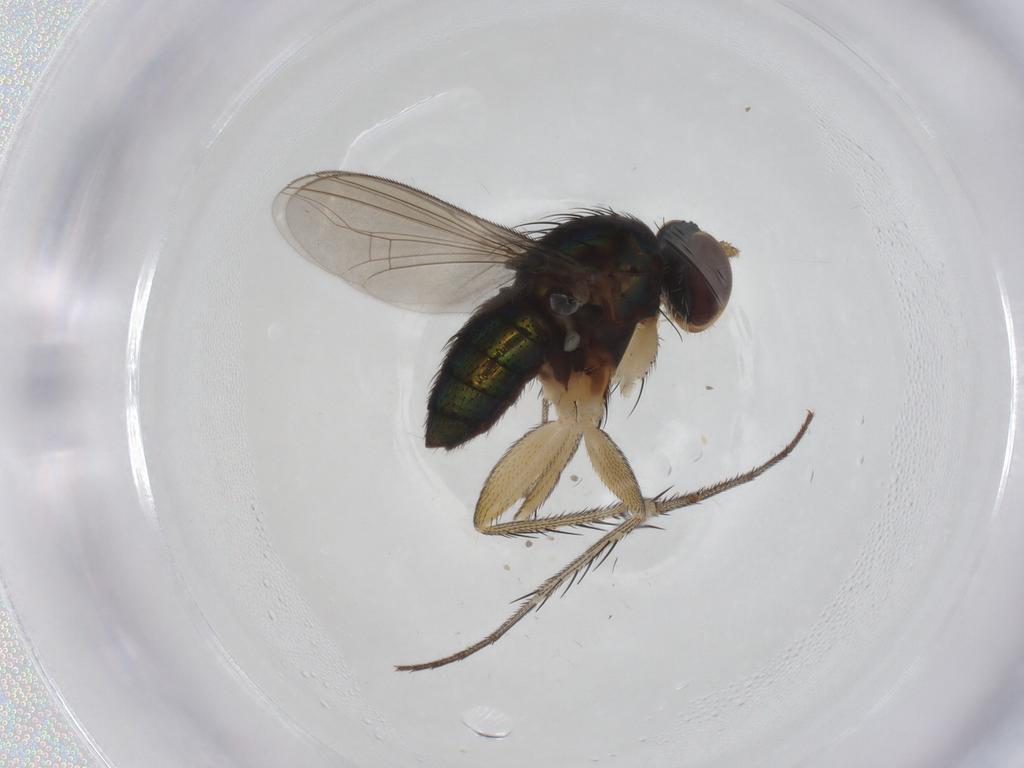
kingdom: Animalia
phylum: Arthropoda
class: Insecta
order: Diptera
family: Dolichopodidae
